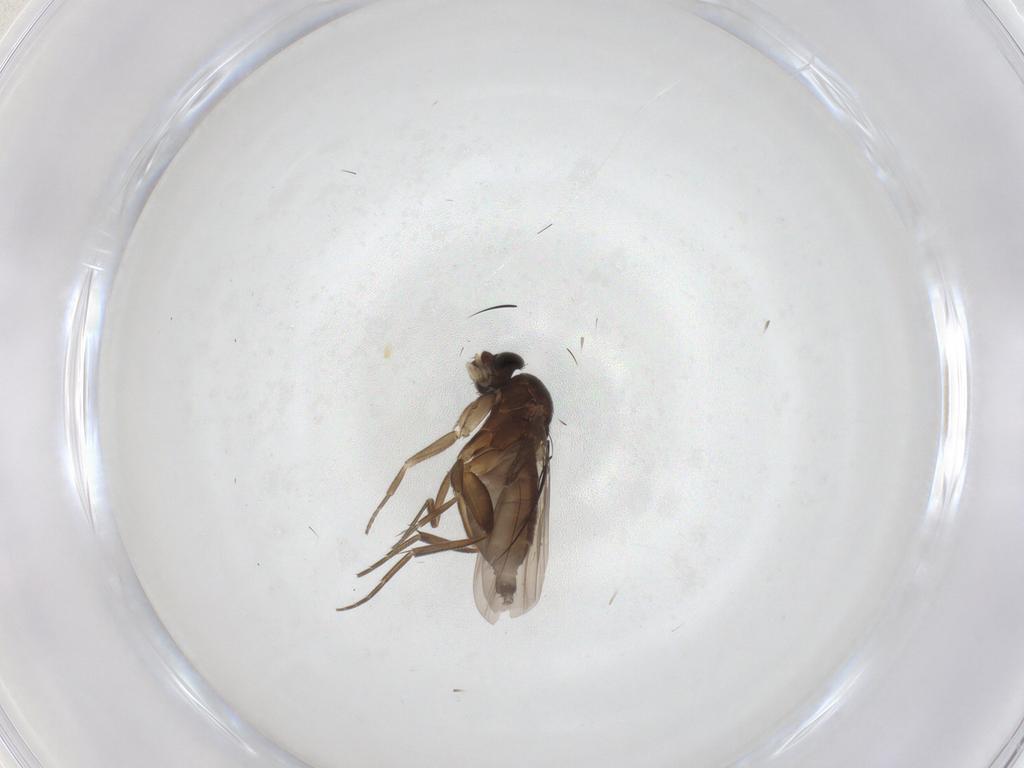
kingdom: Animalia
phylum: Arthropoda
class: Insecta
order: Diptera
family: Phoridae
